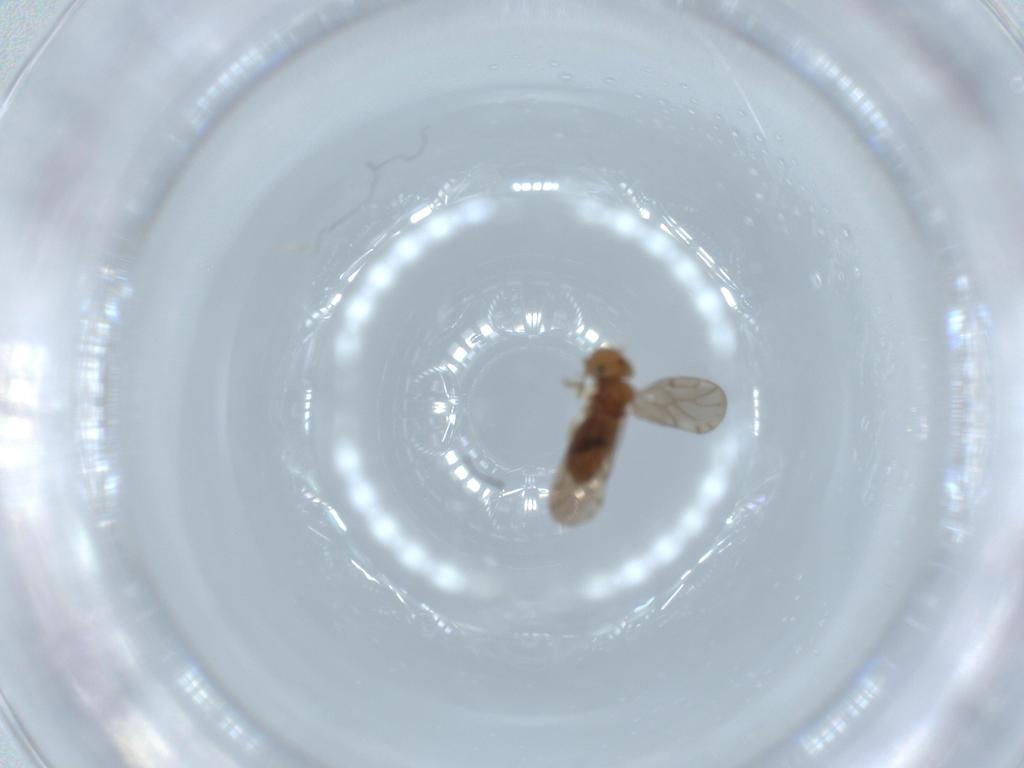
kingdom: Animalia
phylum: Arthropoda
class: Insecta
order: Psocodea
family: Ectopsocidae
